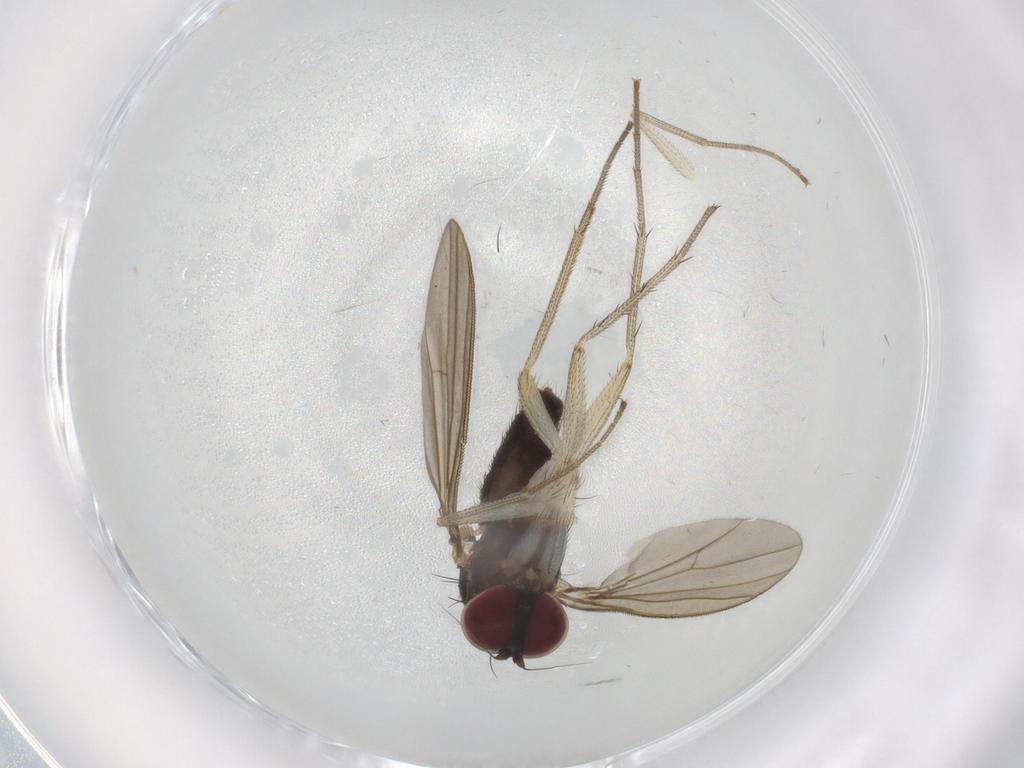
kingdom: Animalia
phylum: Arthropoda
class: Insecta
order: Diptera
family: Dolichopodidae
